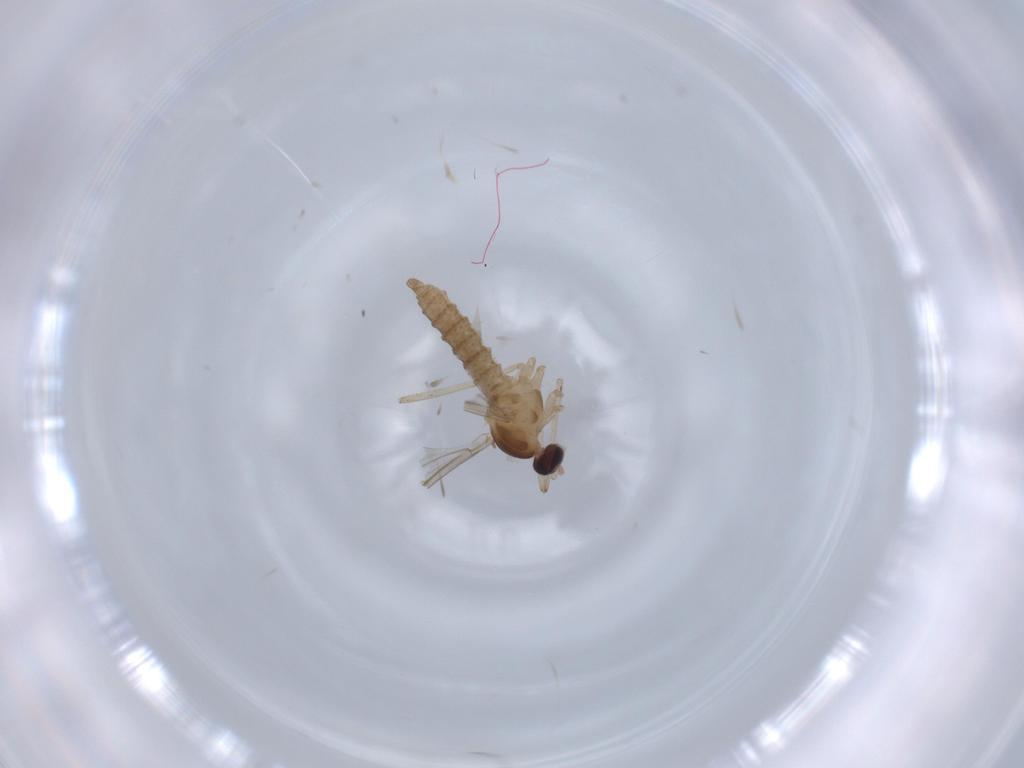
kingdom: Animalia
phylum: Arthropoda
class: Insecta
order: Diptera
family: Cecidomyiidae
